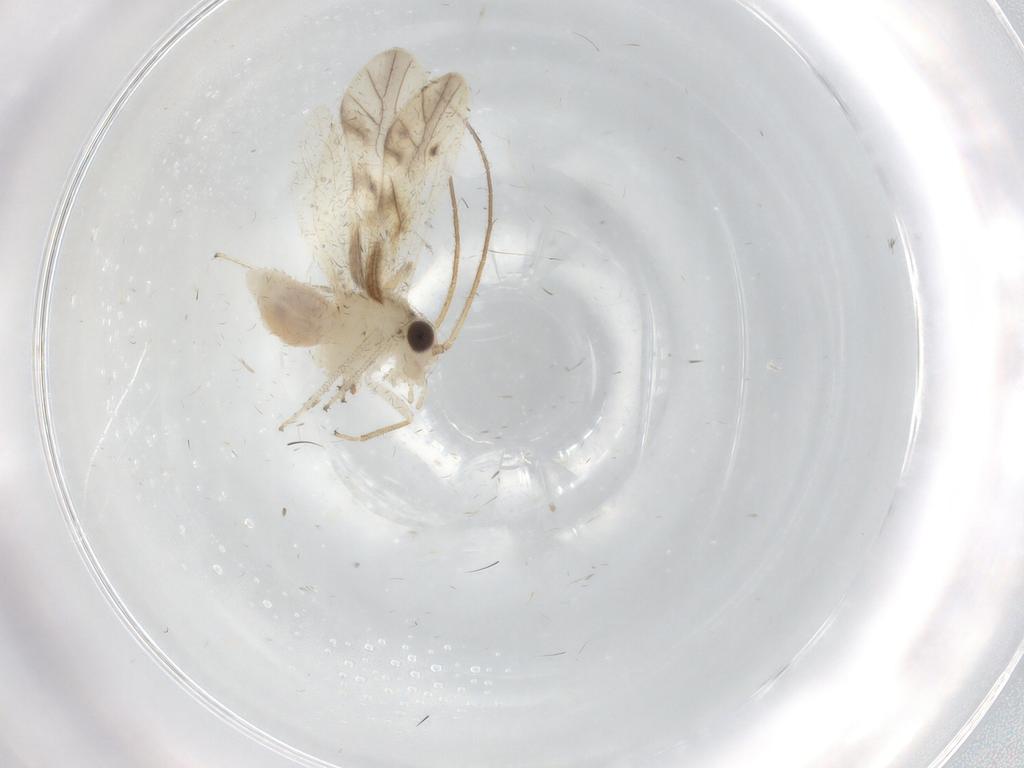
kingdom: Animalia
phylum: Arthropoda
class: Insecta
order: Psocodea
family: Caeciliusidae
